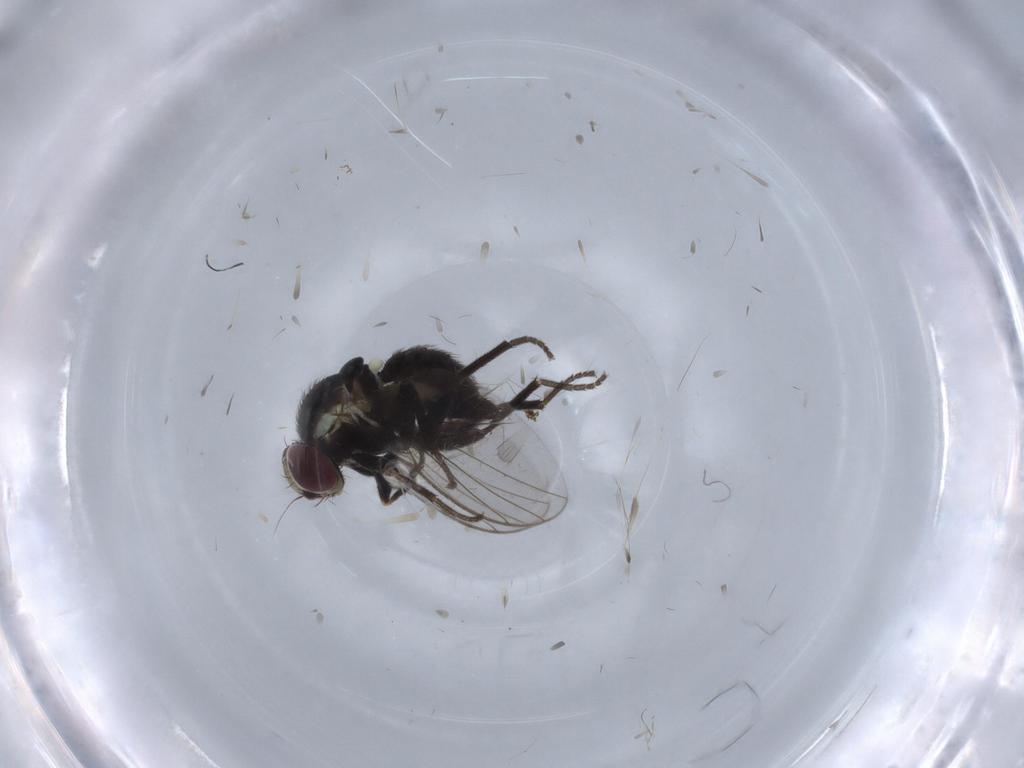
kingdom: Animalia
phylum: Arthropoda
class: Insecta
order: Diptera
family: Agromyzidae
